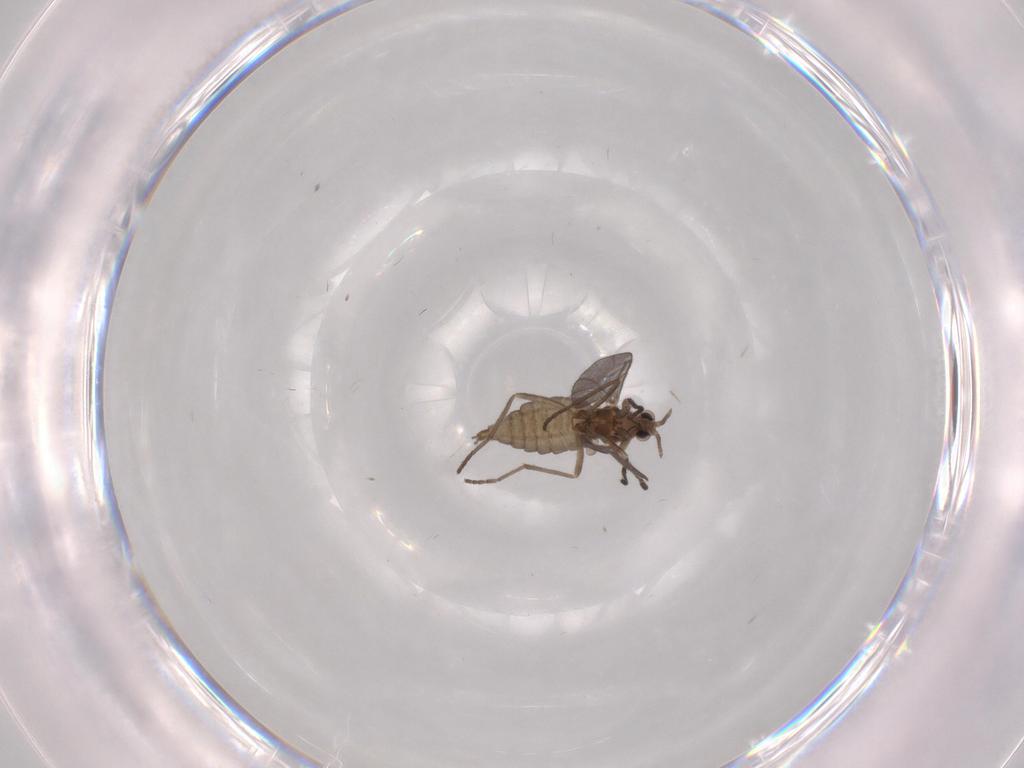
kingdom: Animalia
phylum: Arthropoda
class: Insecta
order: Diptera
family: Cecidomyiidae
